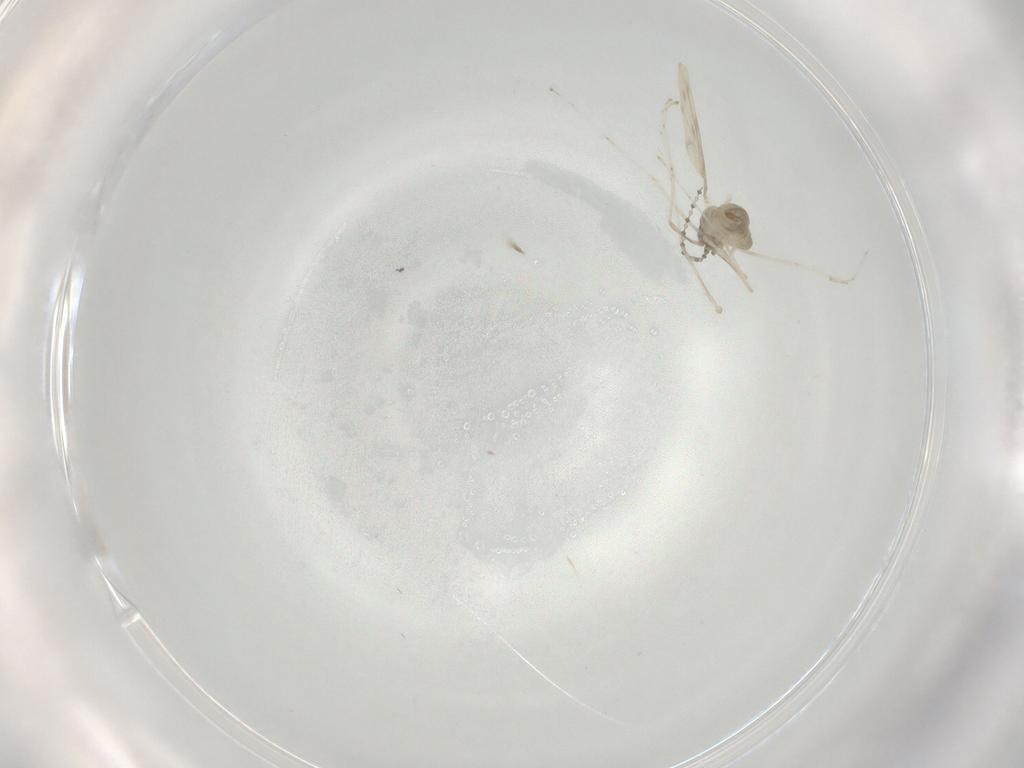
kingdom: Animalia
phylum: Arthropoda
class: Insecta
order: Diptera
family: Cecidomyiidae
